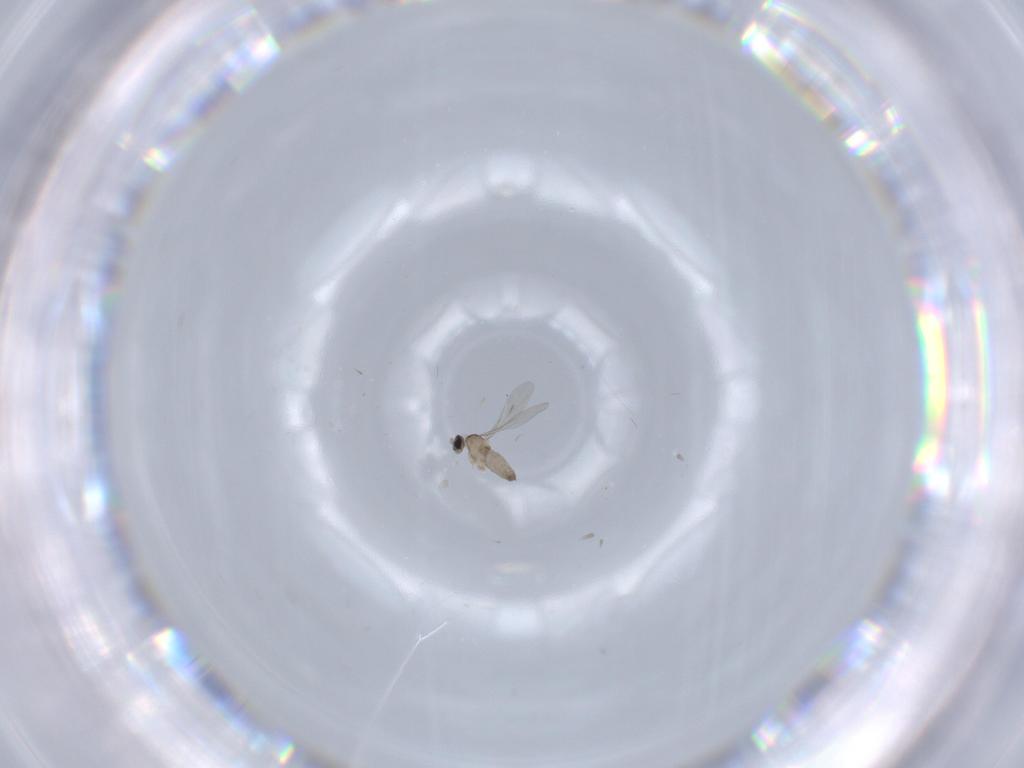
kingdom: Animalia
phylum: Arthropoda
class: Insecta
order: Diptera
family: Cecidomyiidae
